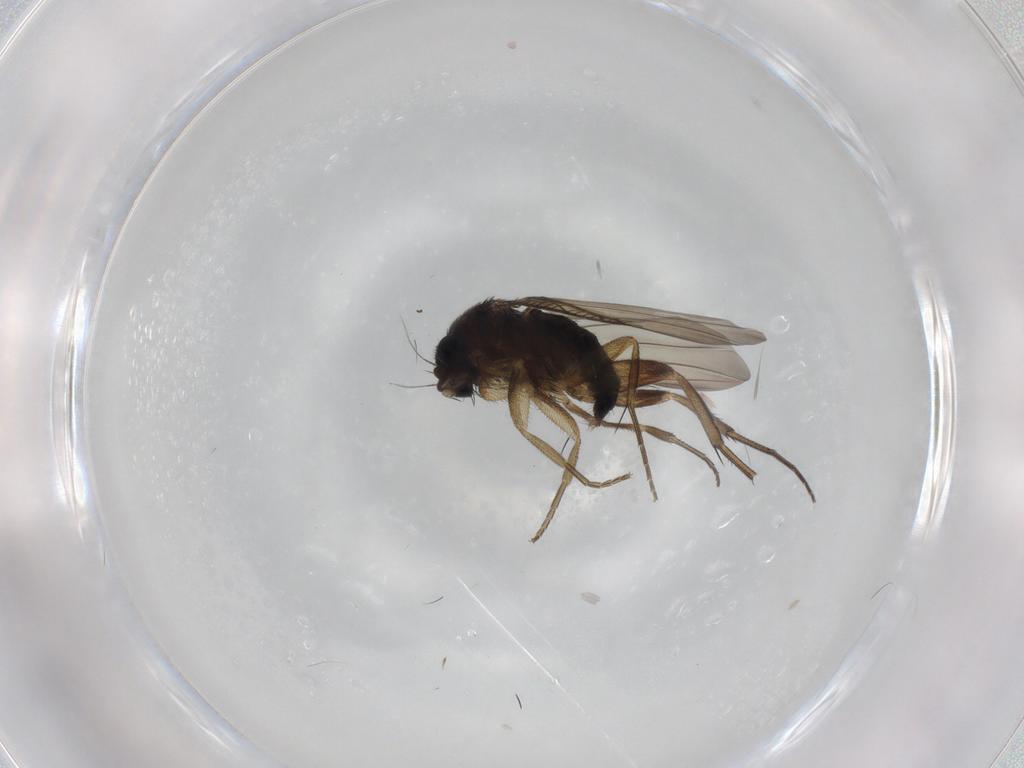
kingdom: Animalia
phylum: Arthropoda
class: Insecta
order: Diptera
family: Phoridae
